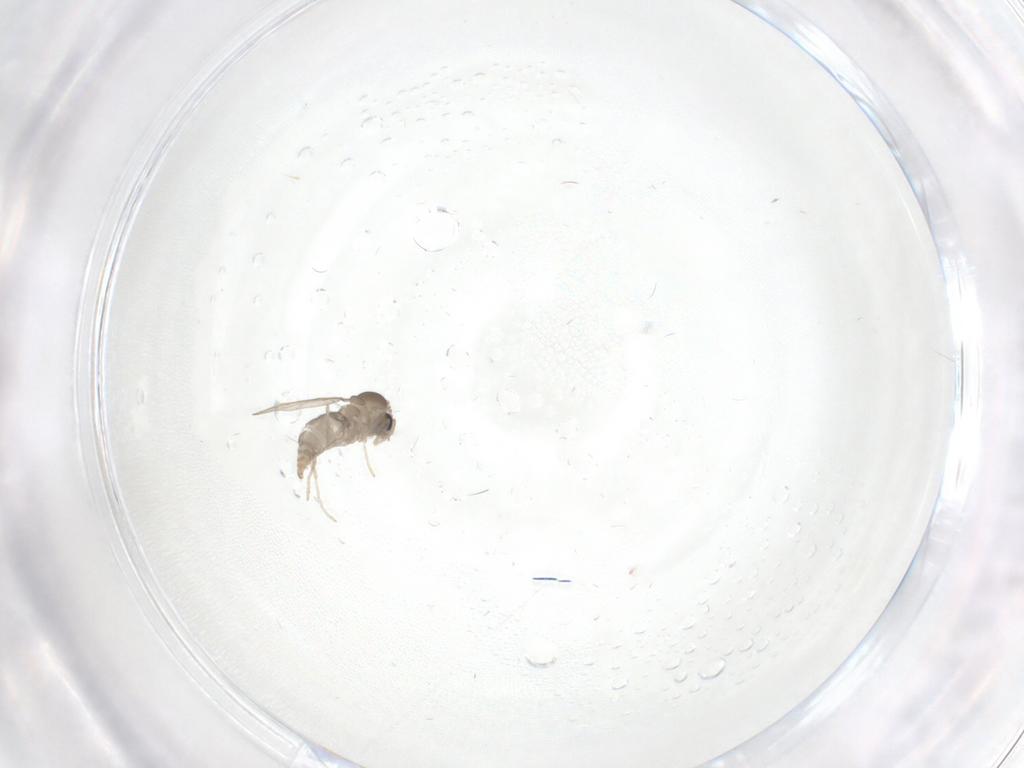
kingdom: Animalia
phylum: Arthropoda
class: Insecta
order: Diptera
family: Cecidomyiidae
